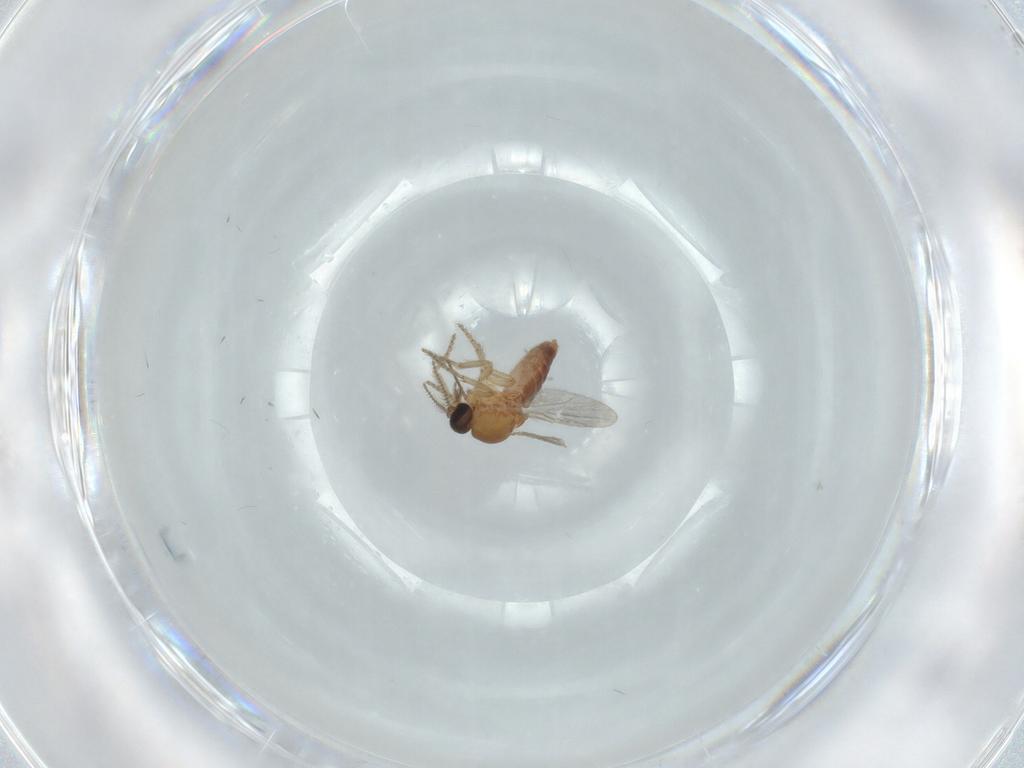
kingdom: Animalia
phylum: Arthropoda
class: Insecta
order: Diptera
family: Ceratopogonidae
